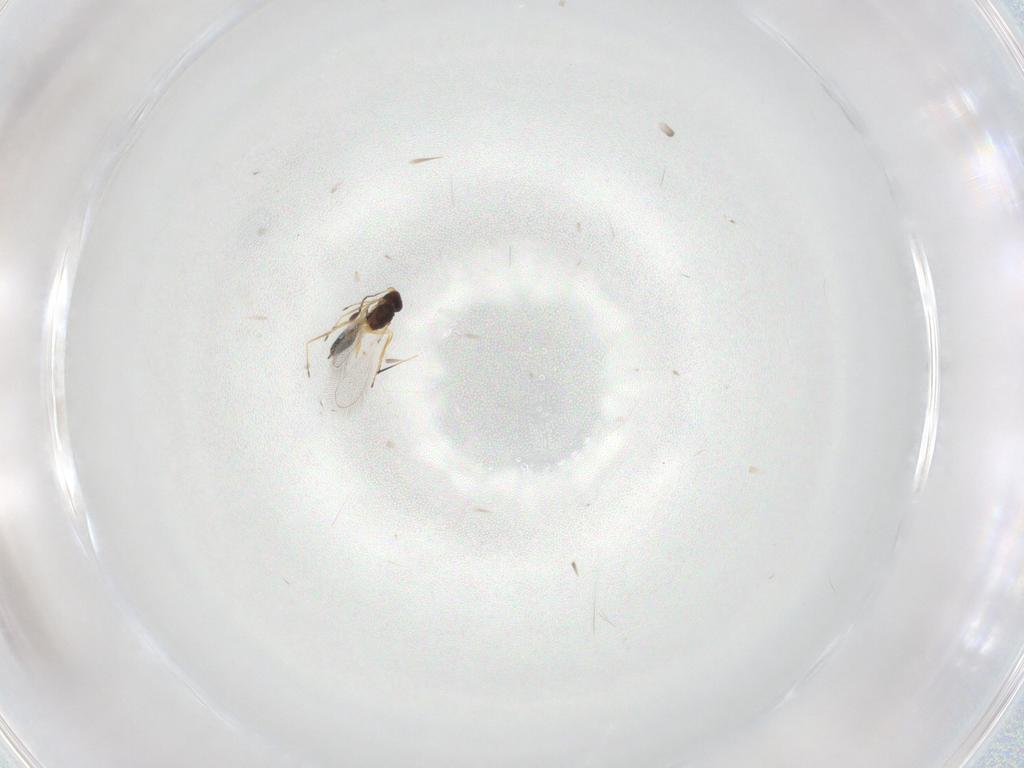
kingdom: Animalia
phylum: Arthropoda
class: Insecta
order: Hymenoptera
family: Mymaridae
